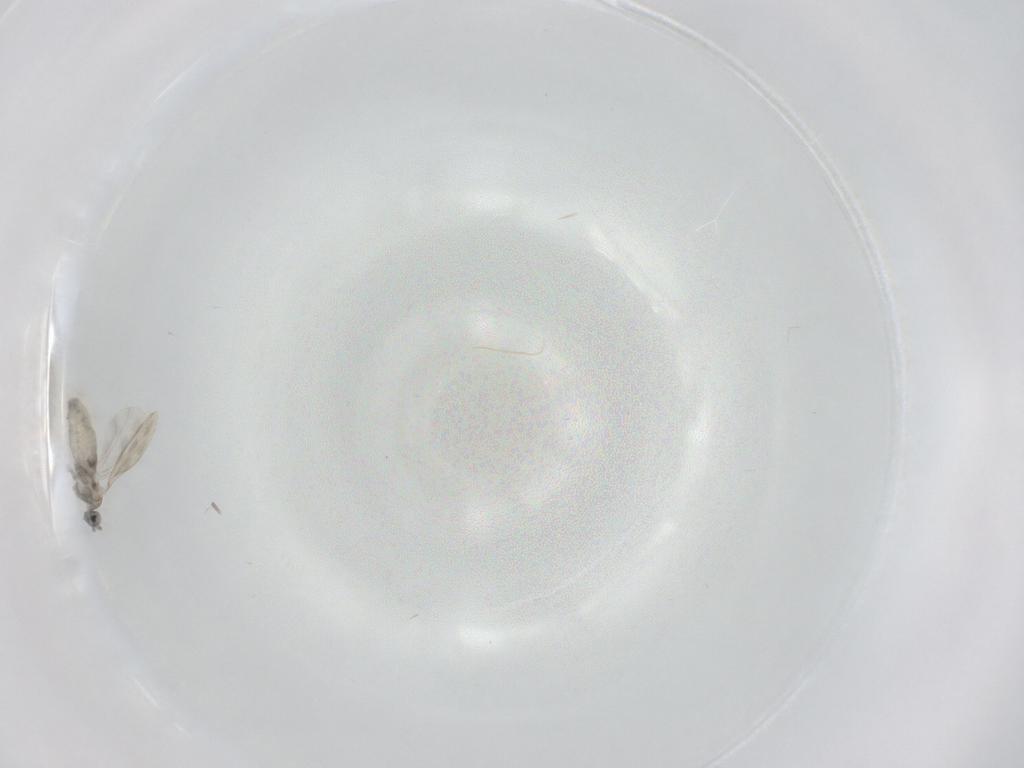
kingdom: Animalia
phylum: Arthropoda
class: Insecta
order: Diptera
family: Cecidomyiidae
